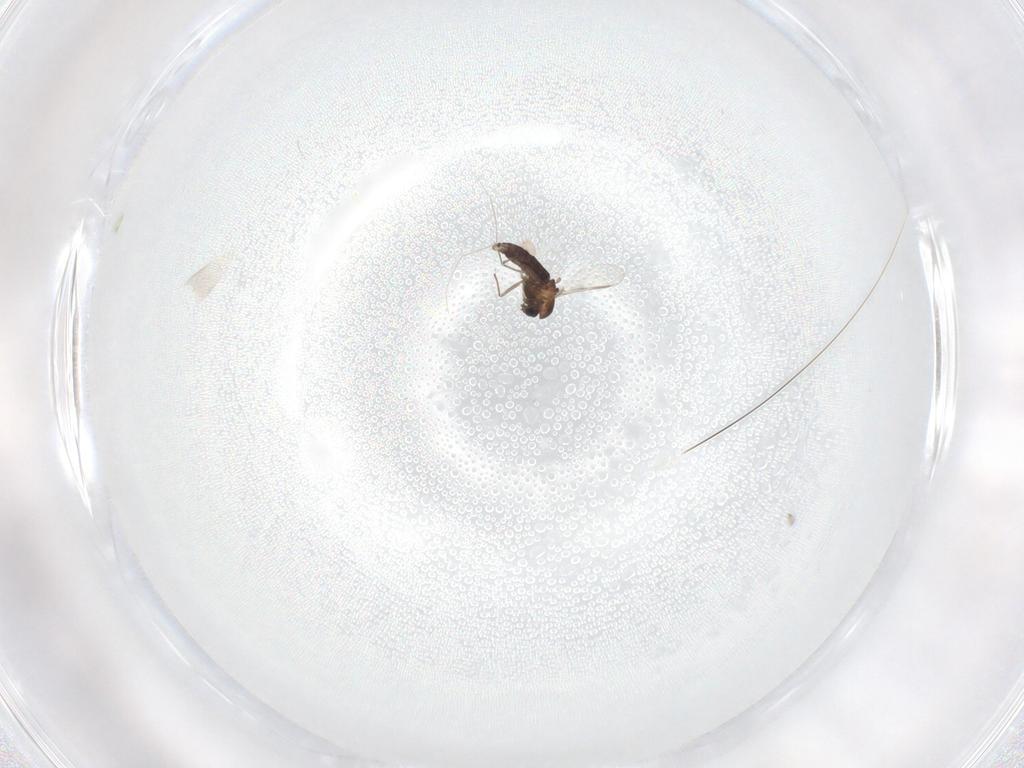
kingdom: Animalia
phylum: Arthropoda
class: Insecta
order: Diptera
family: Chironomidae
